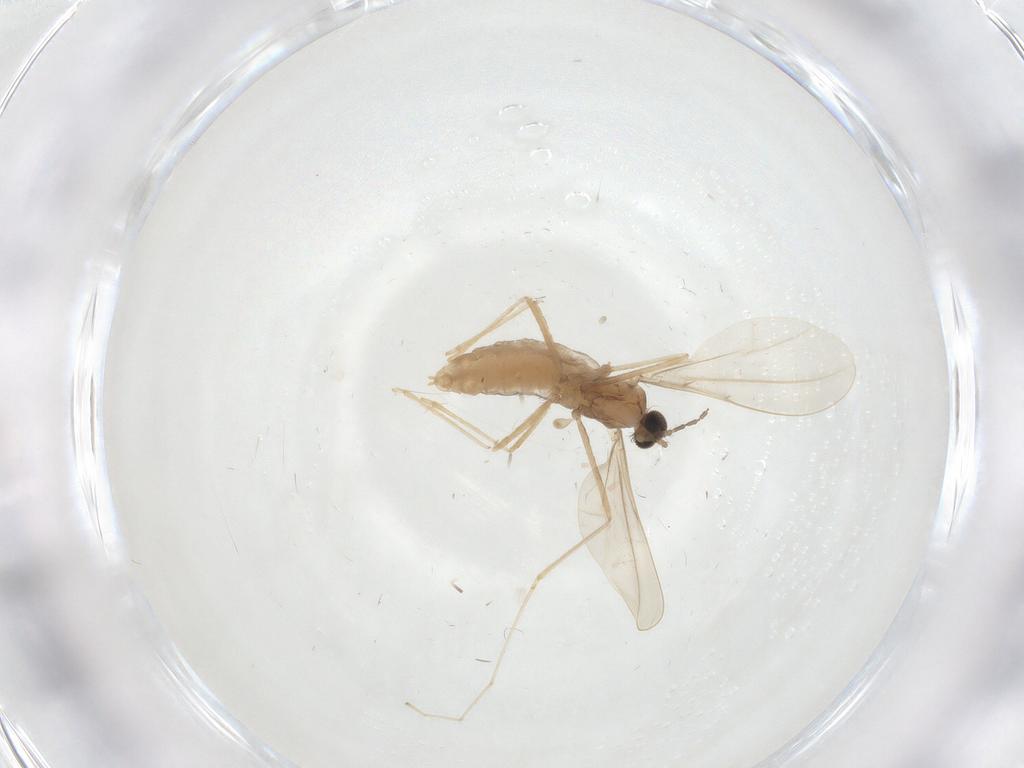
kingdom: Animalia
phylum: Arthropoda
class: Insecta
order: Diptera
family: Cecidomyiidae
